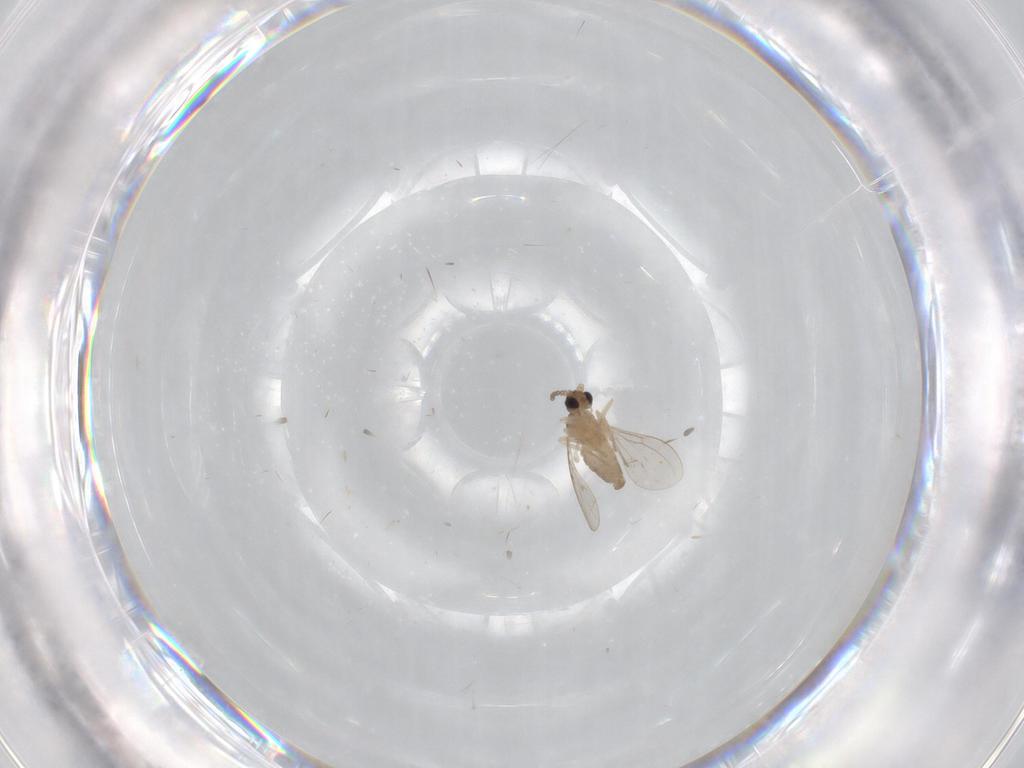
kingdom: Animalia
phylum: Arthropoda
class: Insecta
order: Diptera
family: Cecidomyiidae
